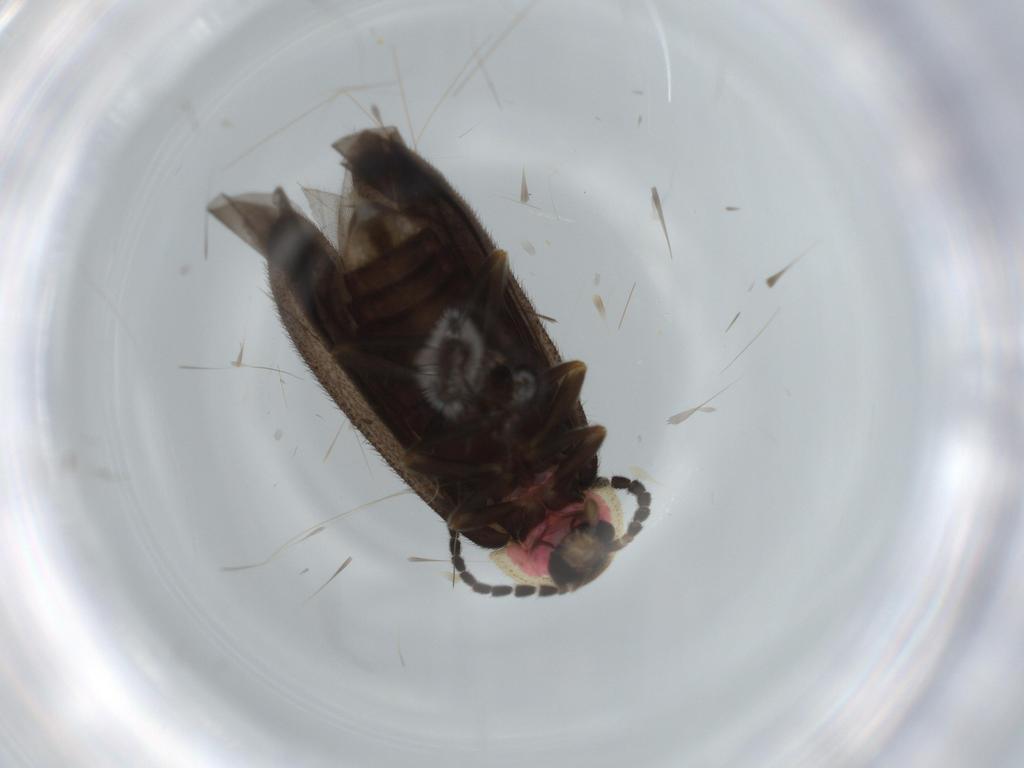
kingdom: Animalia
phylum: Arthropoda
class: Insecta
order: Coleoptera
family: Lampyridae
